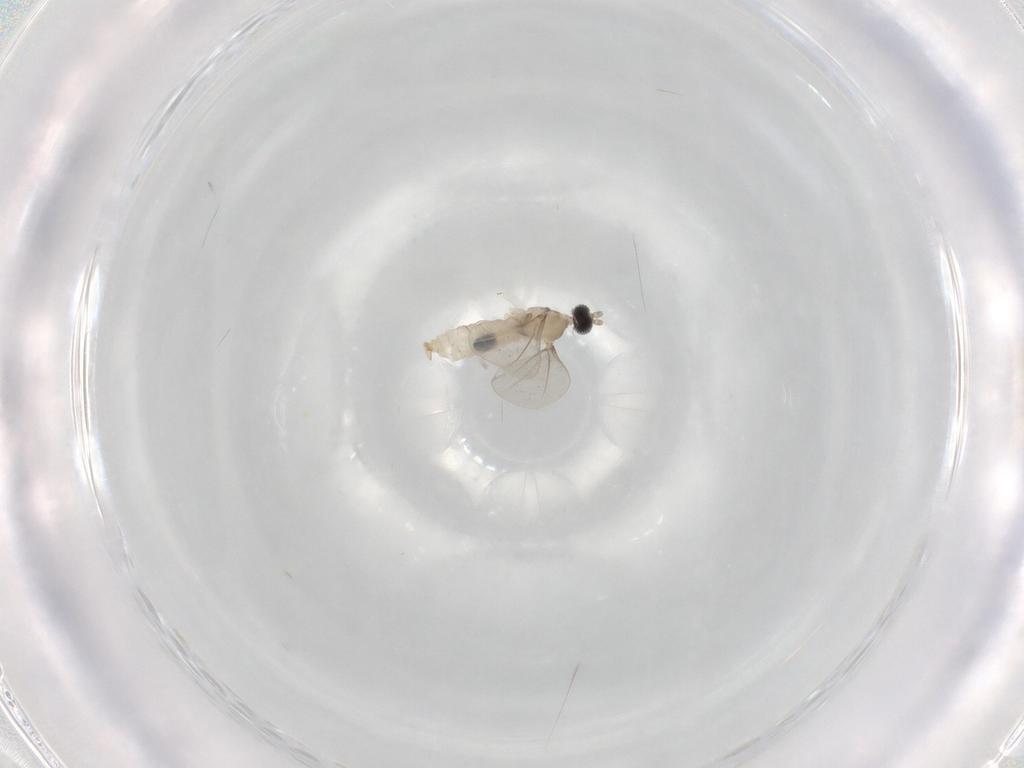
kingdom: Animalia
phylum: Arthropoda
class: Insecta
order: Diptera
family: Cecidomyiidae
